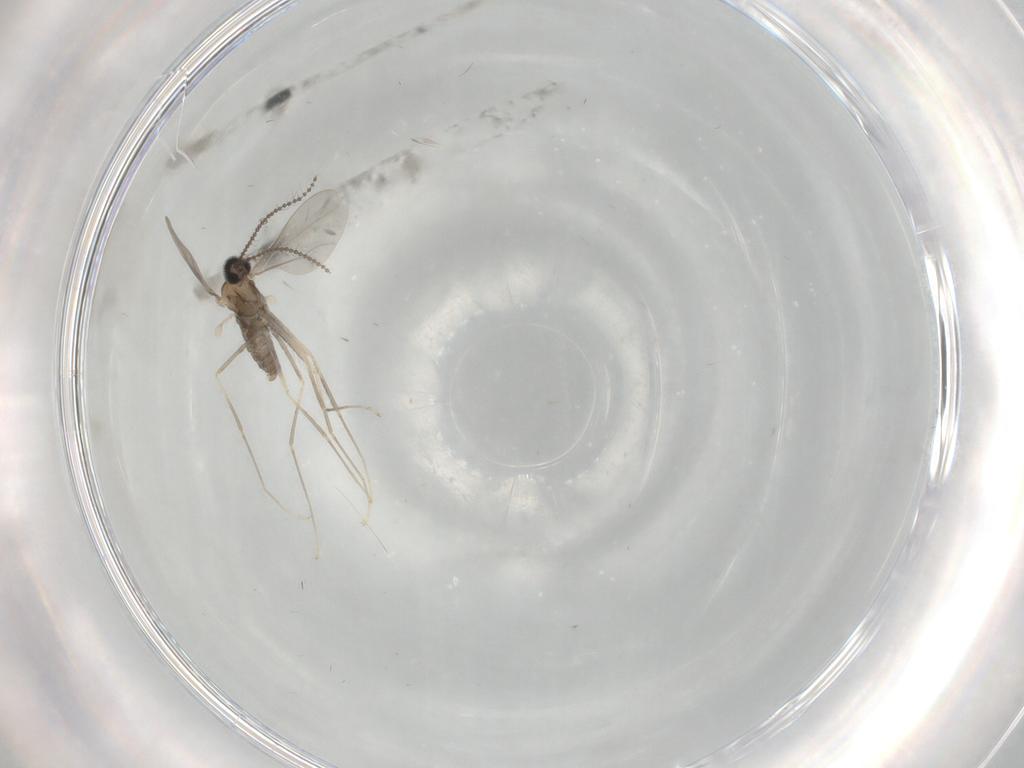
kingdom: Animalia
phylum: Arthropoda
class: Insecta
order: Diptera
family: Cecidomyiidae
